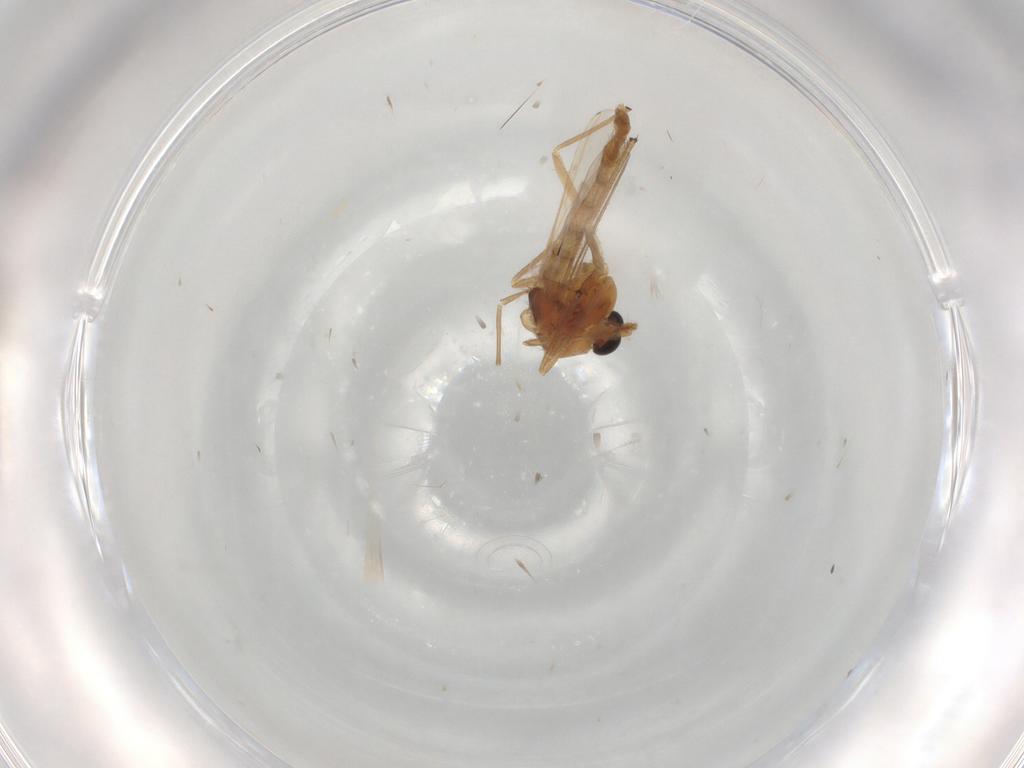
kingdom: Animalia
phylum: Arthropoda
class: Insecta
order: Diptera
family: Chironomidae
